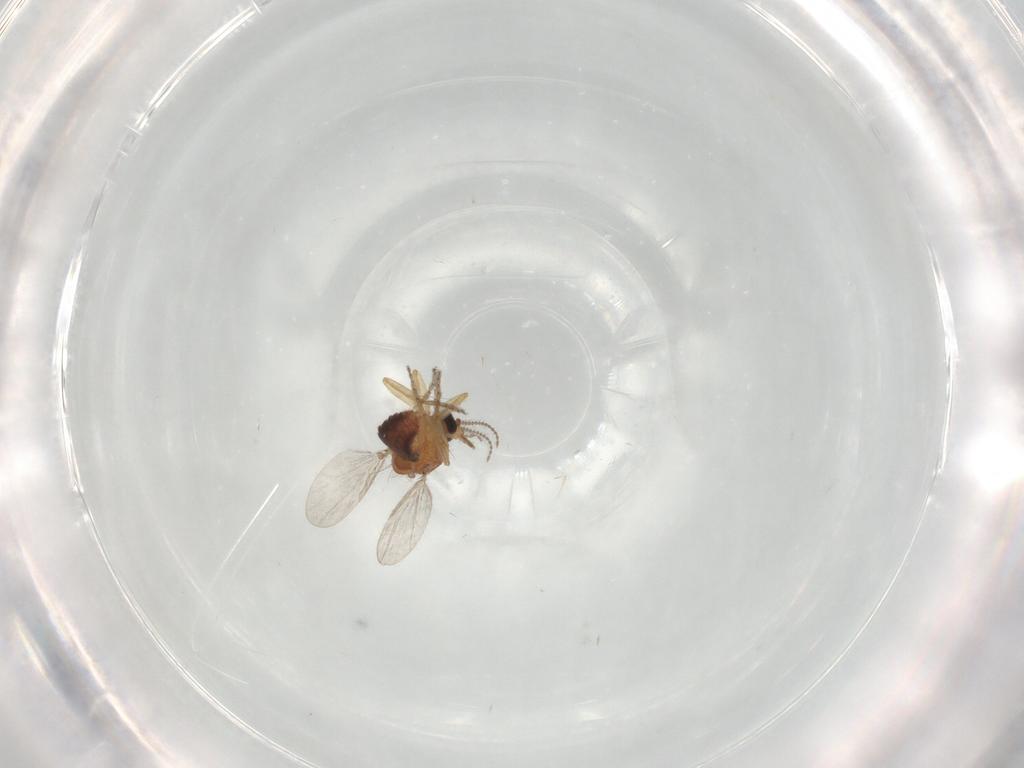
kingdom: Animalia
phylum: Arthropoda
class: Insecta
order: Diptera
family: Ceratopogonidae
